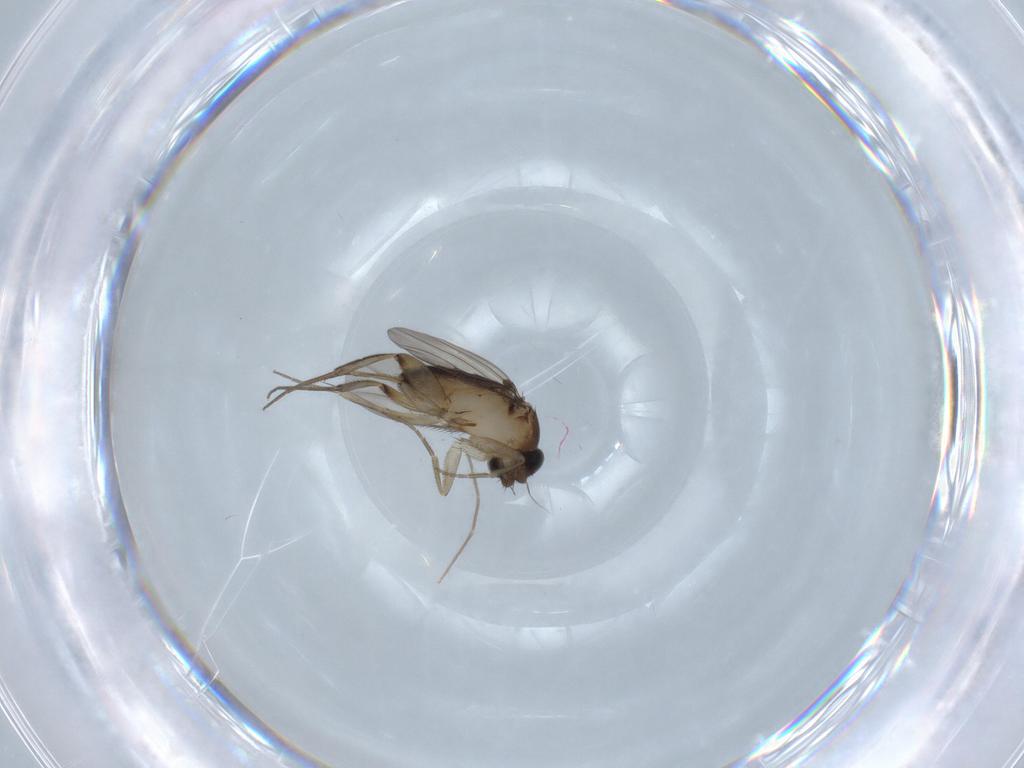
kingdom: Animalia
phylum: Arthropoda
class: Insecta
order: Diptera
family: Phoridae
